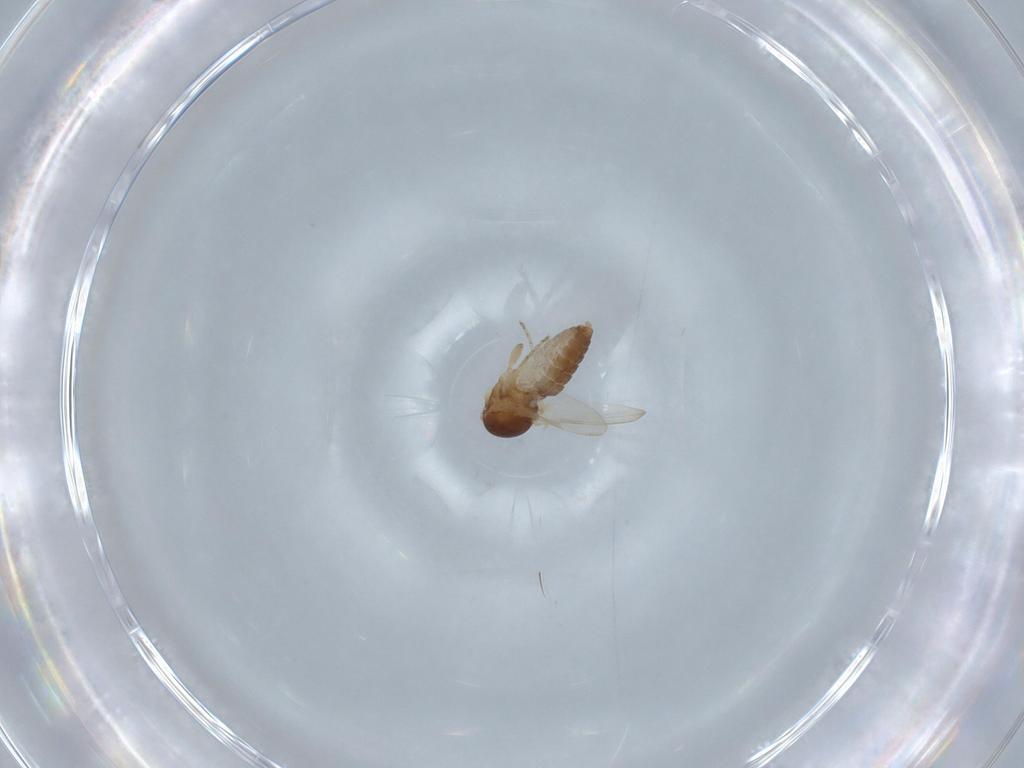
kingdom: Animalia
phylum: Arthropoda
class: Insecta
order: Diptera
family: Ceratopogonidae
